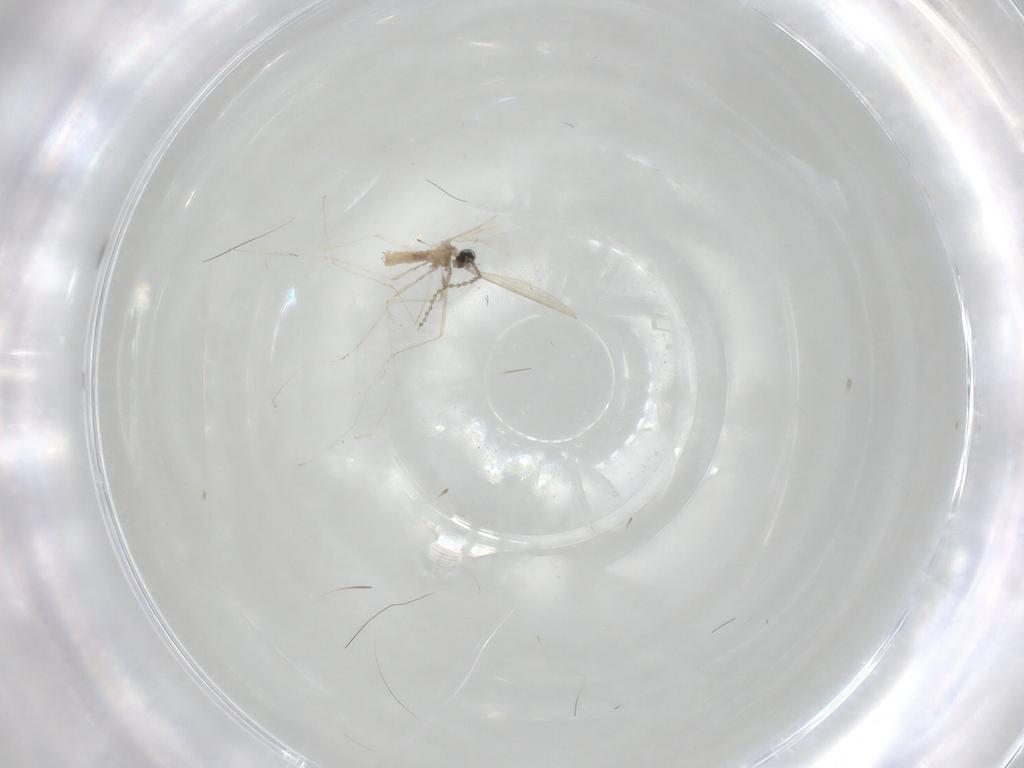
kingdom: Animalia
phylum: Arthropoda
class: Insecta
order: Diptera
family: Cecidomyiidae
